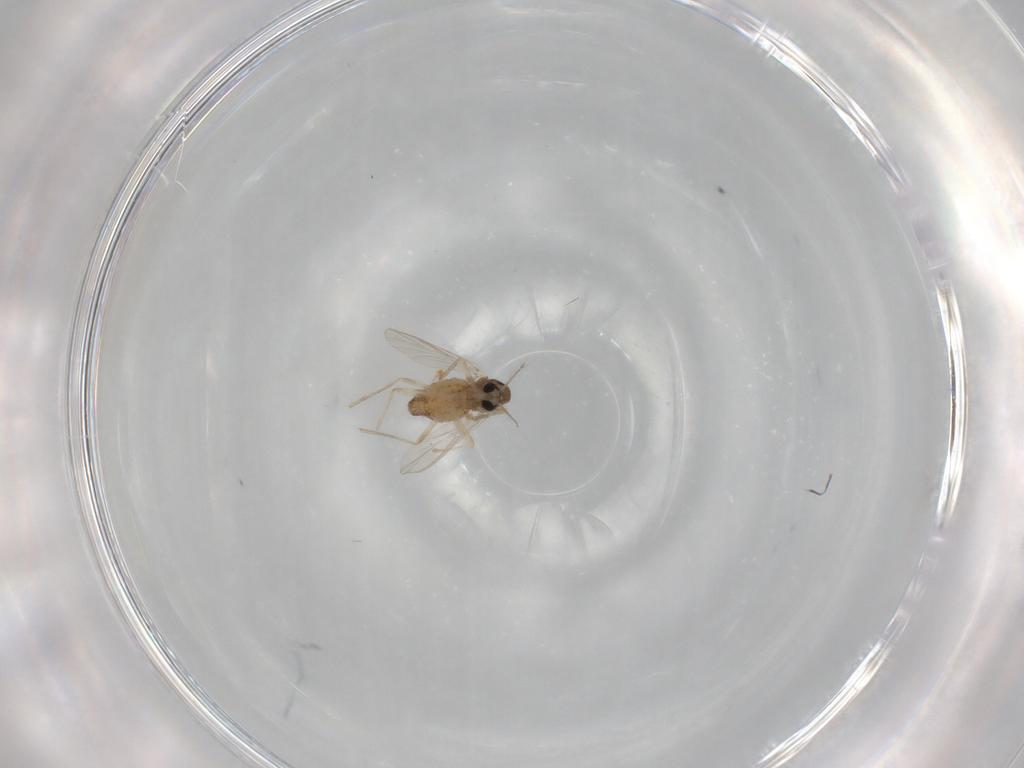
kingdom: Animalia
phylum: Arthropoda
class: Insecta
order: Diptera
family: Chironomidae
